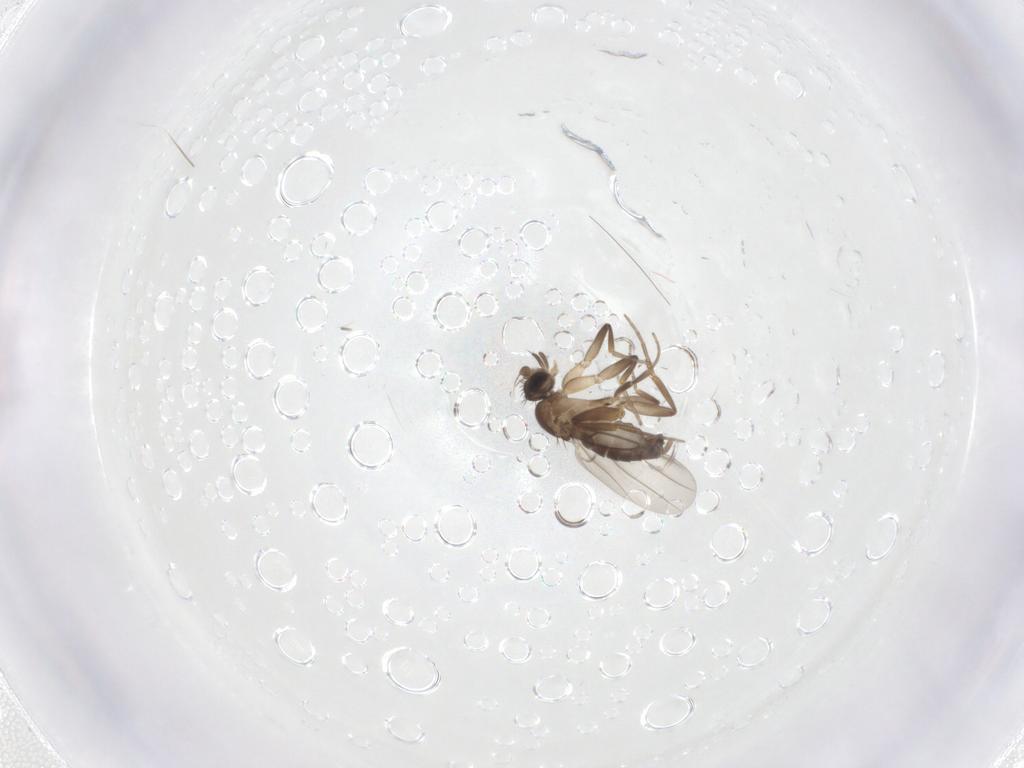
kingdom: Animalia
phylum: Arthropoda
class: Insecta
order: Diptera
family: Phoridae
